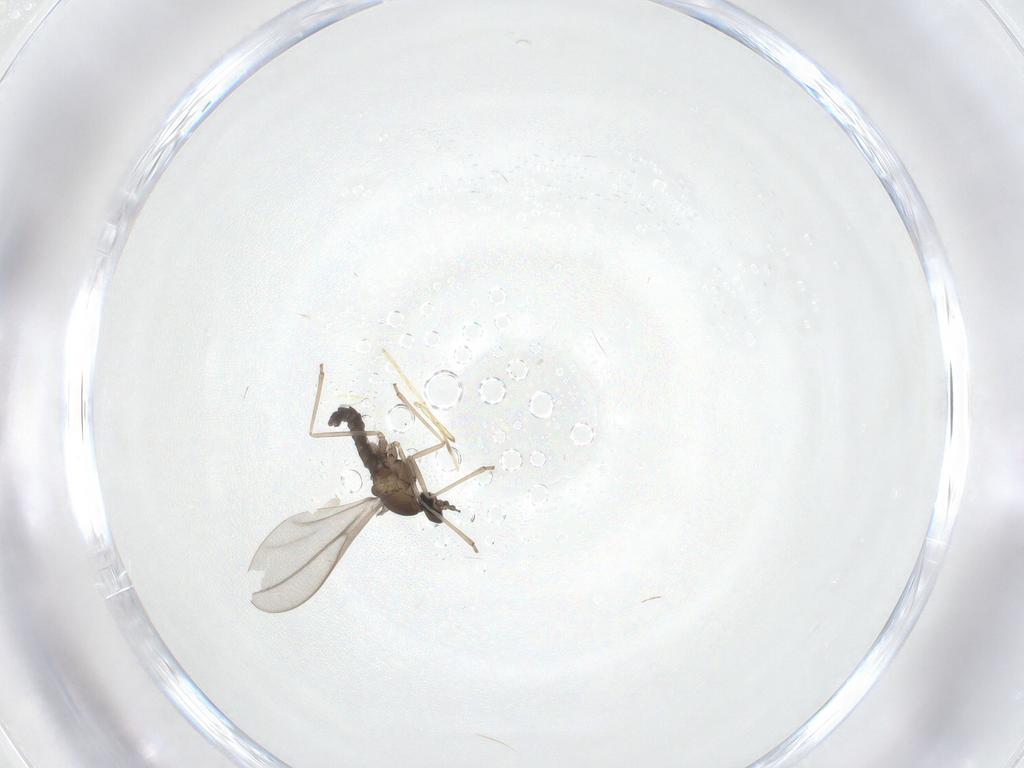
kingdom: Animalia
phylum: Arthropoda
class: Insecta
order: Diptera
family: Chironomidae
